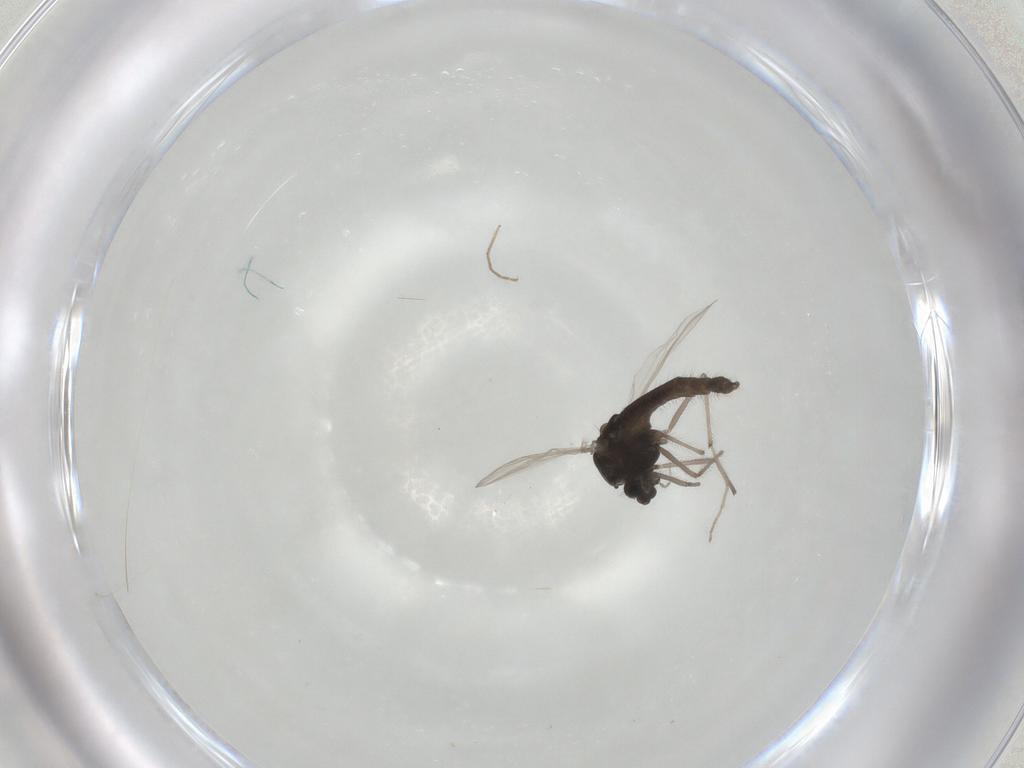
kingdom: Animalia
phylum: Arthropoda
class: Insecta
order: Diptera
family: Chironomidae
